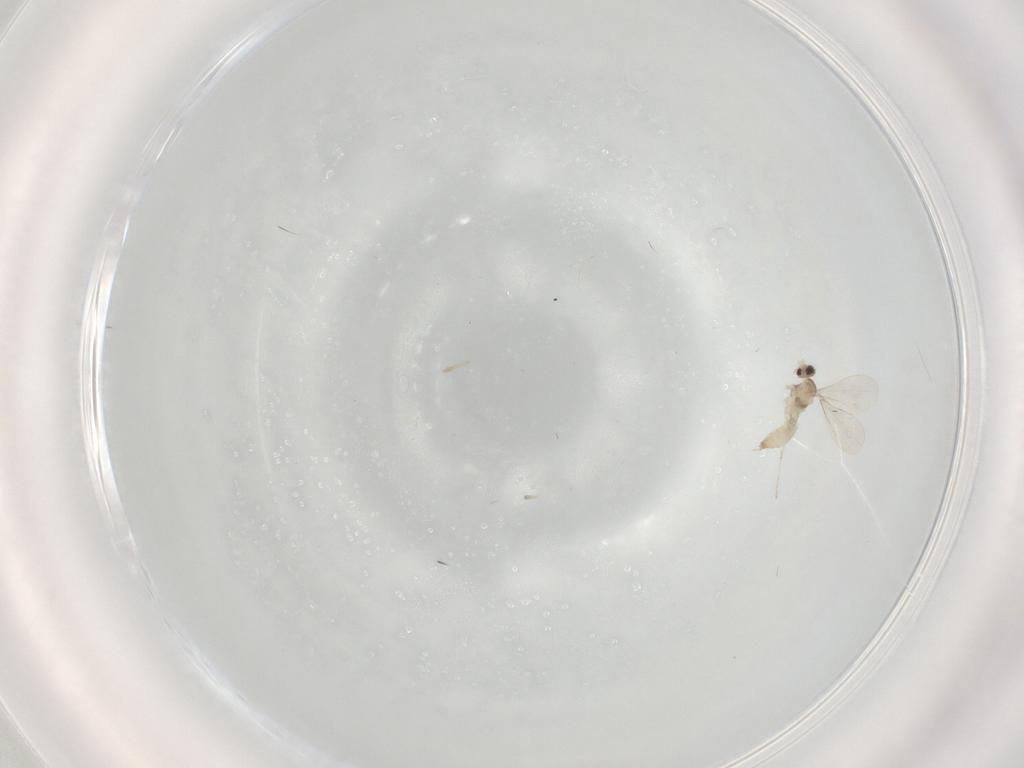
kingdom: Animalia
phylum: Arthropoda
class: Insecta
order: Diptera
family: Cecidomyiidae
